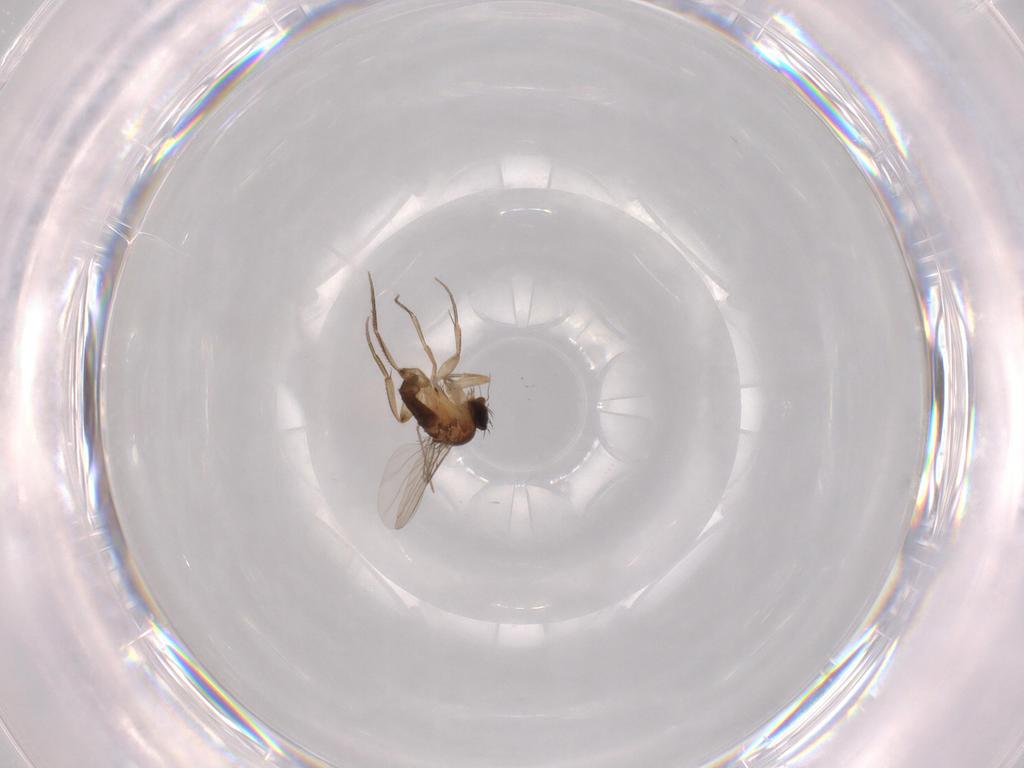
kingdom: Animalia
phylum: Arthropoda
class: Insecta
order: Diptera
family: Phoridae
